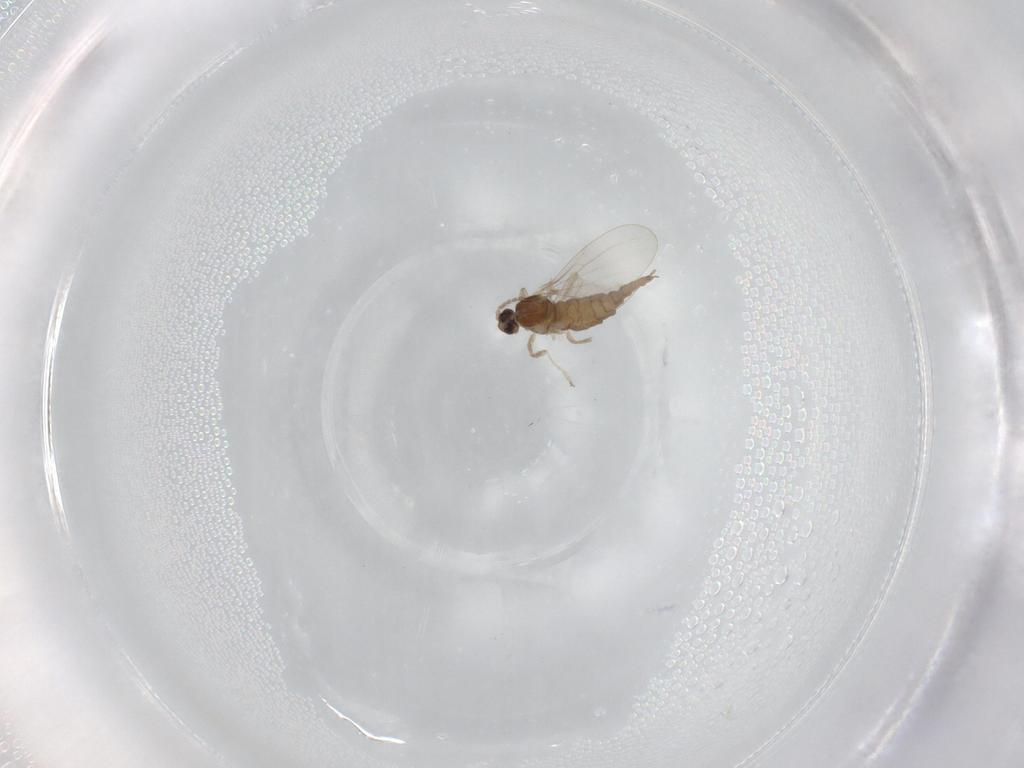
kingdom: Animalia
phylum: Arthropoda
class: Insecta
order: Diptera
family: Cecidomyiidae
